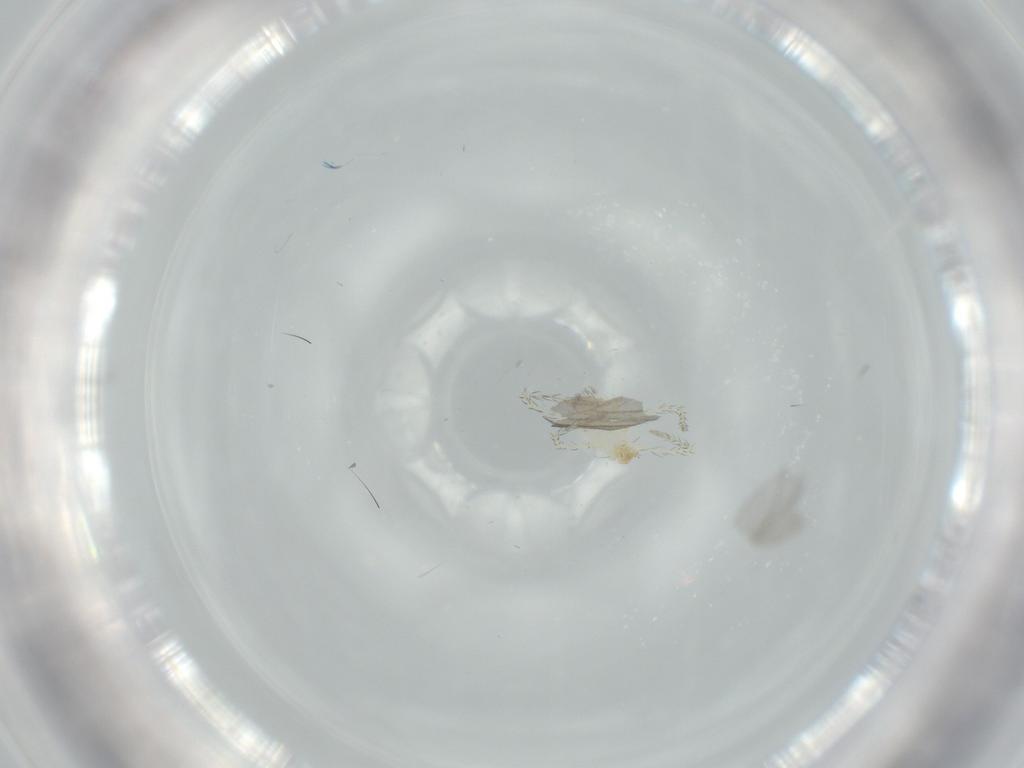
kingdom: Animalia
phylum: Arthropoda
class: Arachnida
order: Trombidiformes
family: Erythraeidae
